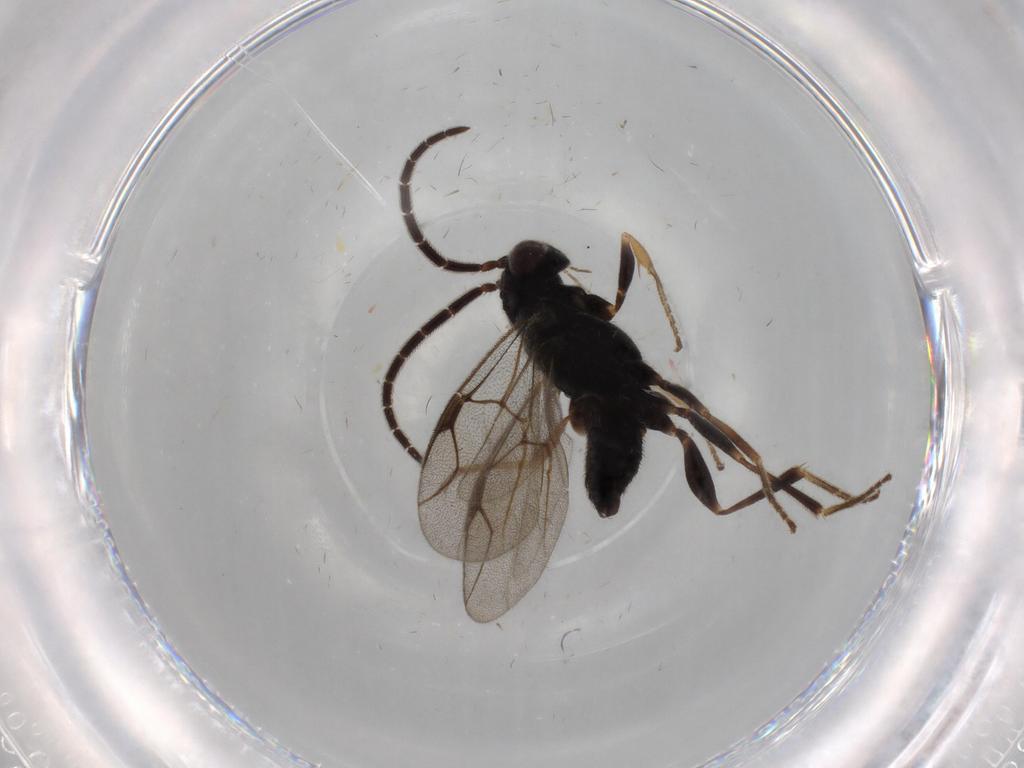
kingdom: Animalia
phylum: Arthropoda
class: Insecta
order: Hymenoptera
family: Dryinidae
